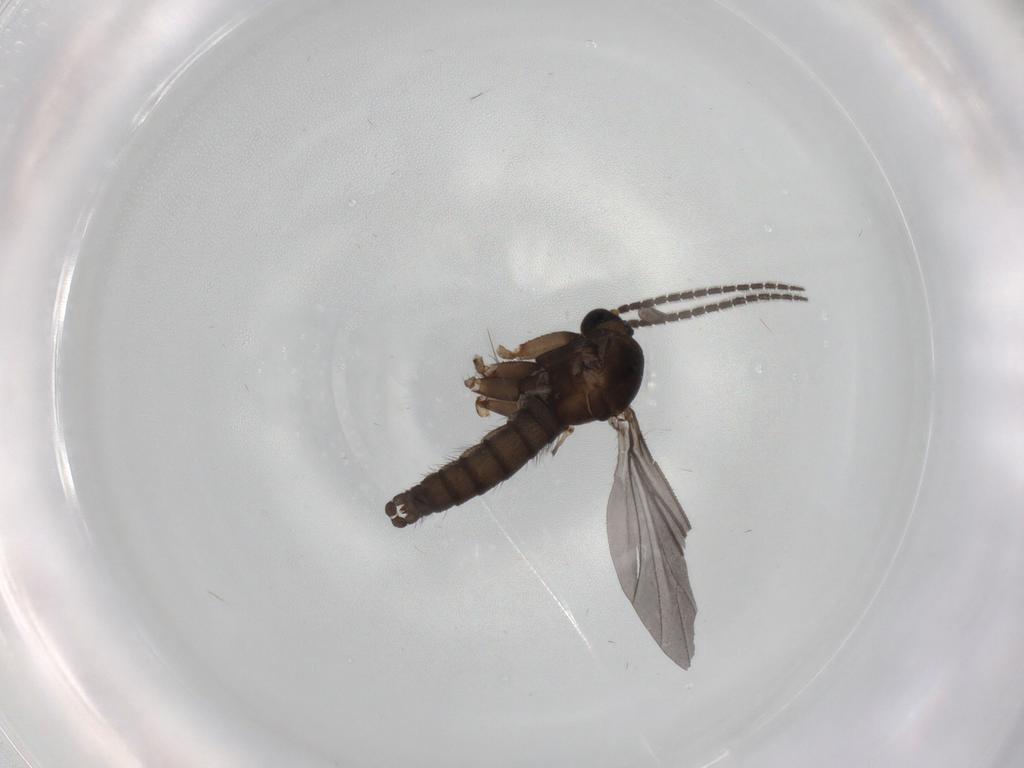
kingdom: Animalia
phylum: Arthropoda
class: Insecta
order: Diptera
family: Sciaridae
